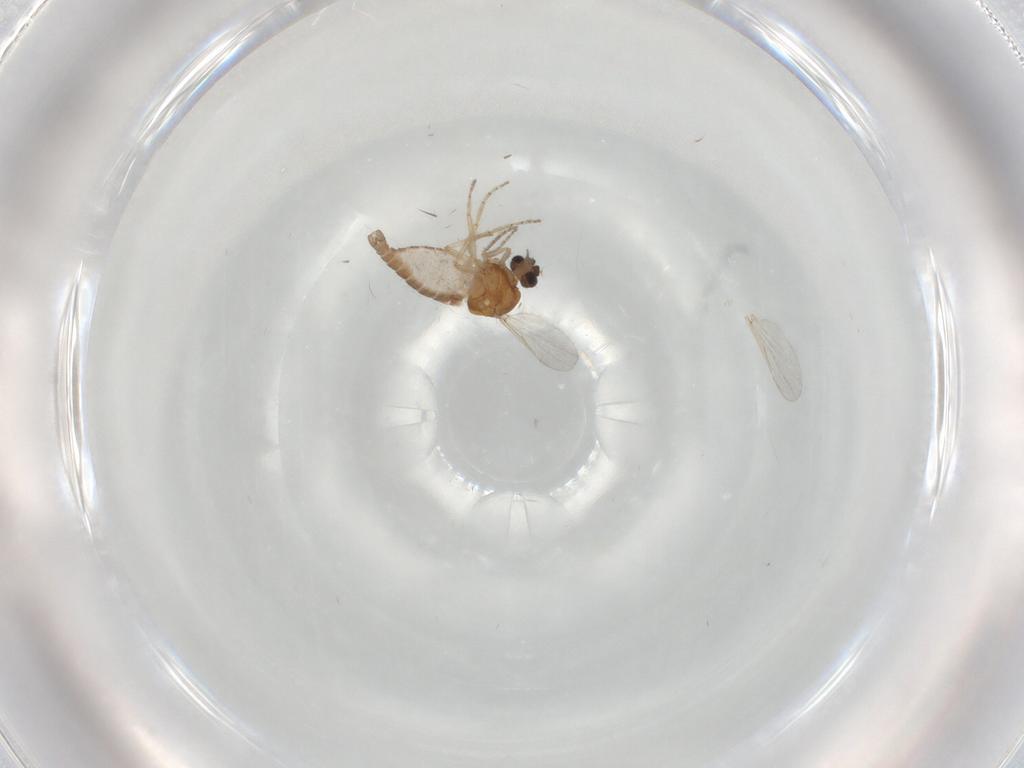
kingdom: Animalia
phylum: Arthropoda
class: Insecta
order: Diptera
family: Ceratopogonidae
